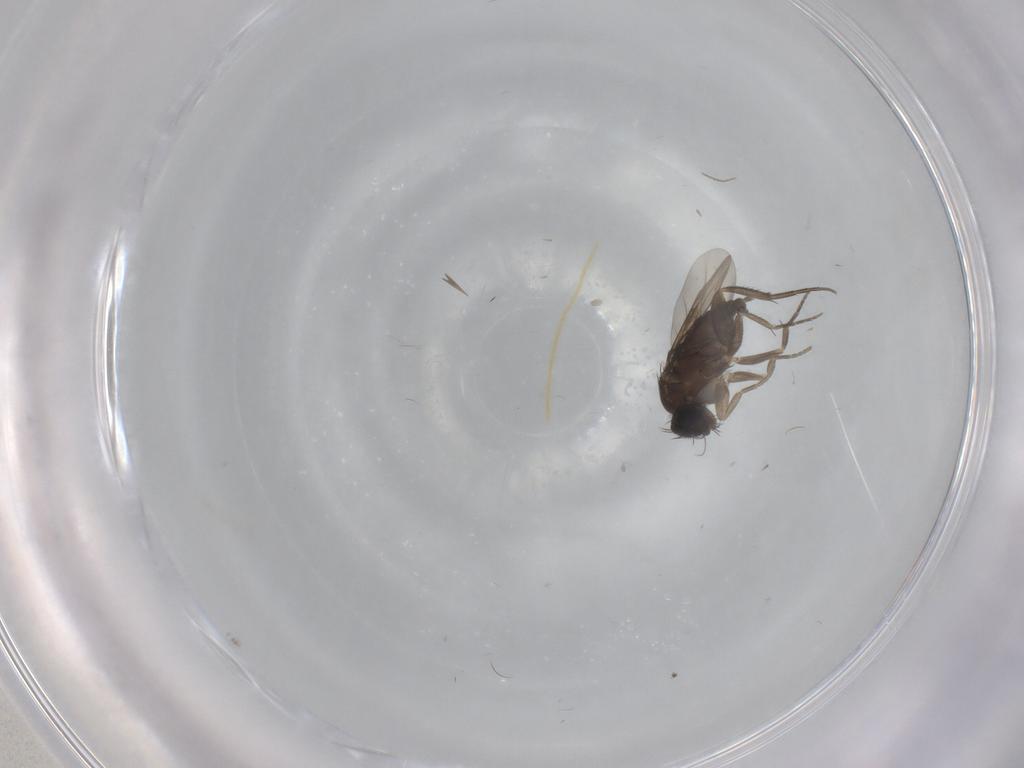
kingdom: Animalia
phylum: Arthropoda
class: Insecta
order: Diptera
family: Phoridae
